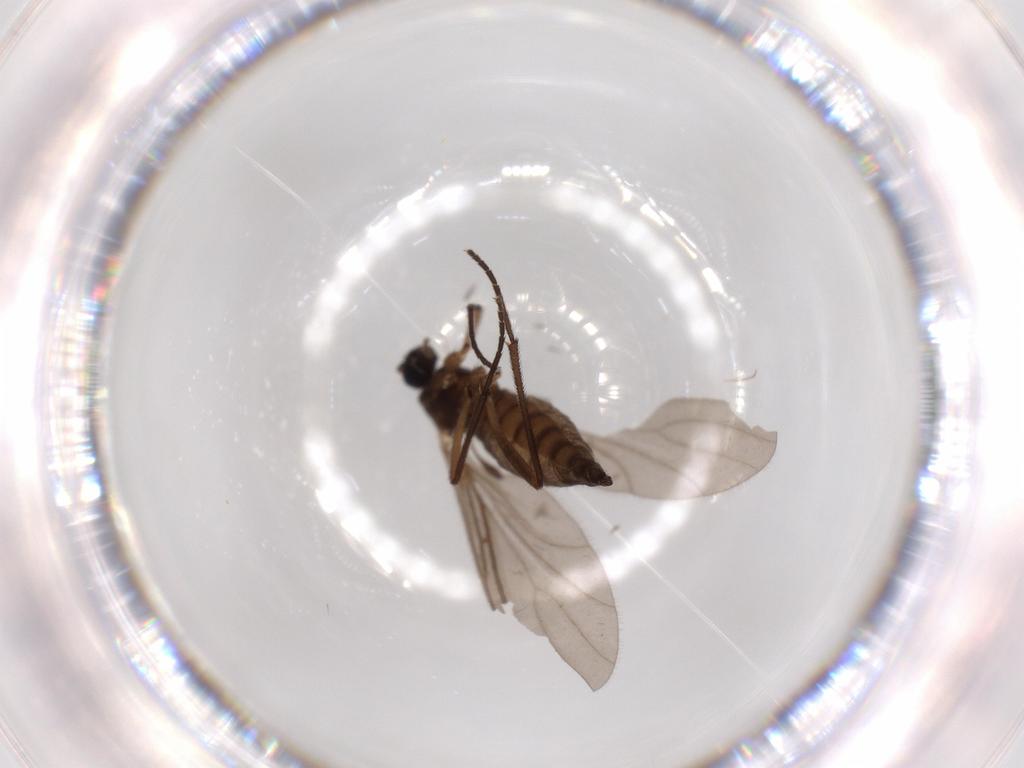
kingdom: Animalia
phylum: Arthropoda
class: Insecta
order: Diptera
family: Sciaridae
